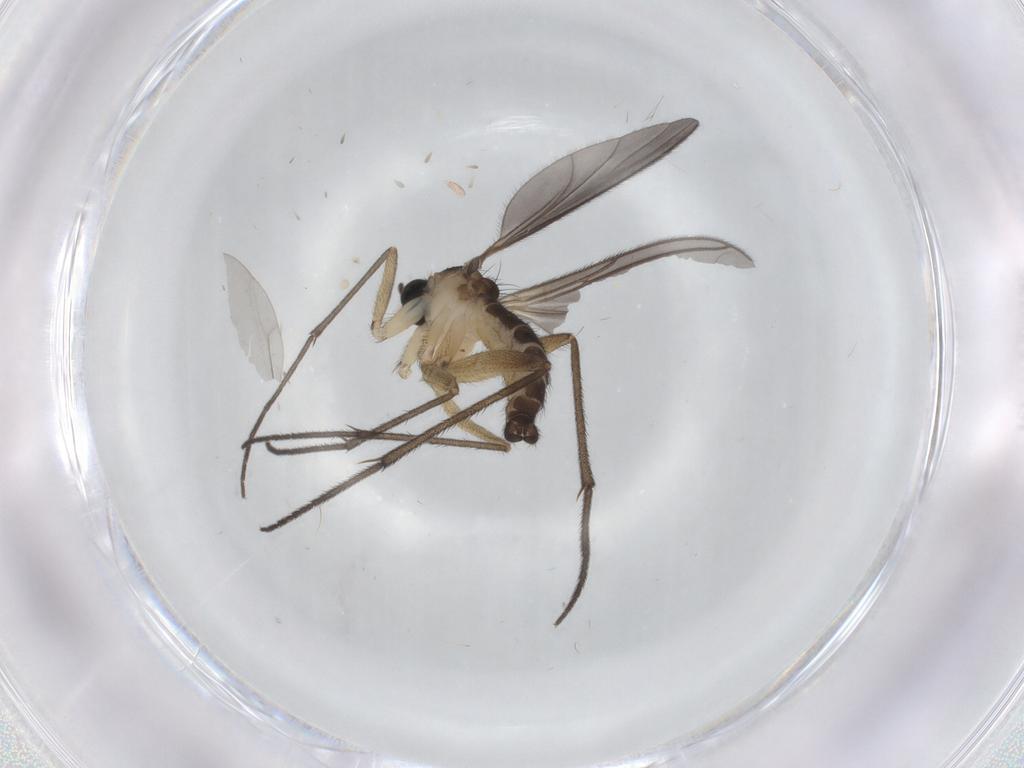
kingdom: Animalia
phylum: Arthropoda
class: Insecta
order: Diptera
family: Sciaridae
